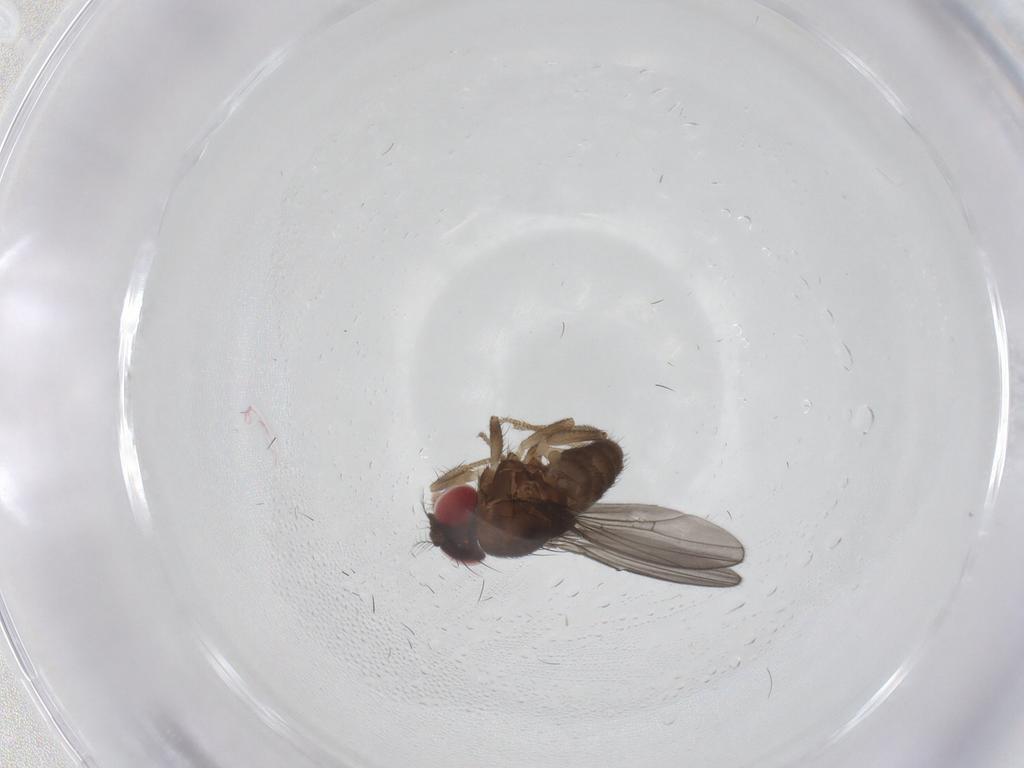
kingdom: Animalia
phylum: Arthropoda
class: Insecta
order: Diptera
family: Drosophilidae
